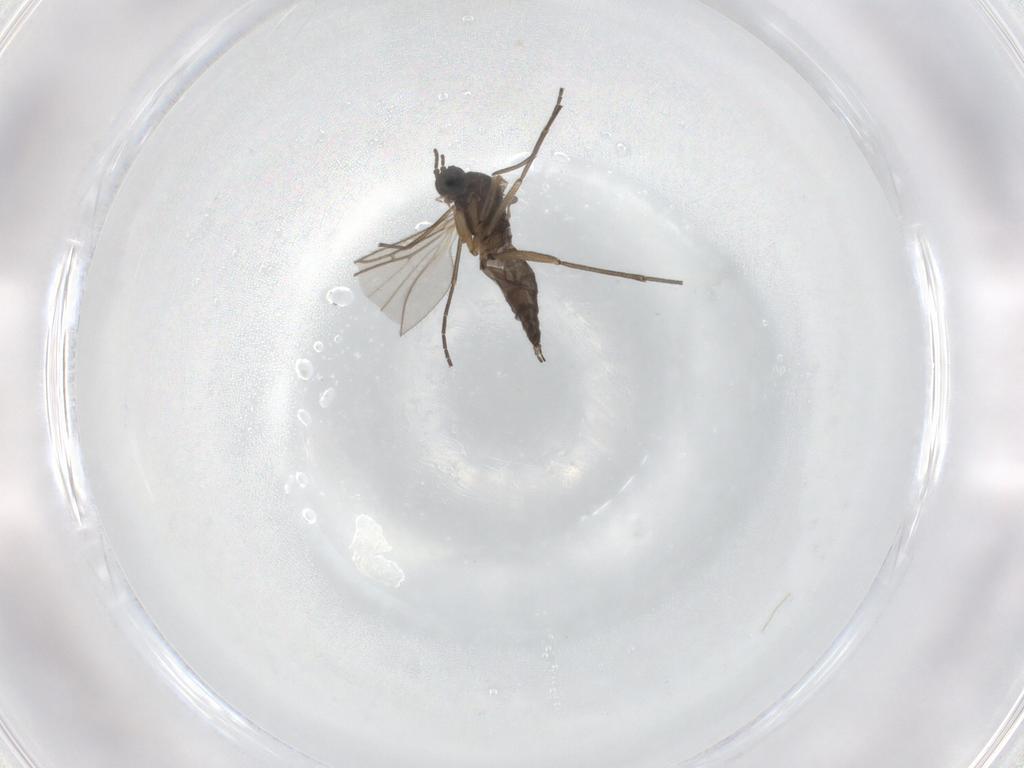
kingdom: Animalia
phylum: Arthropoda
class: Insecta
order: Diptera
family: Sciaridae
